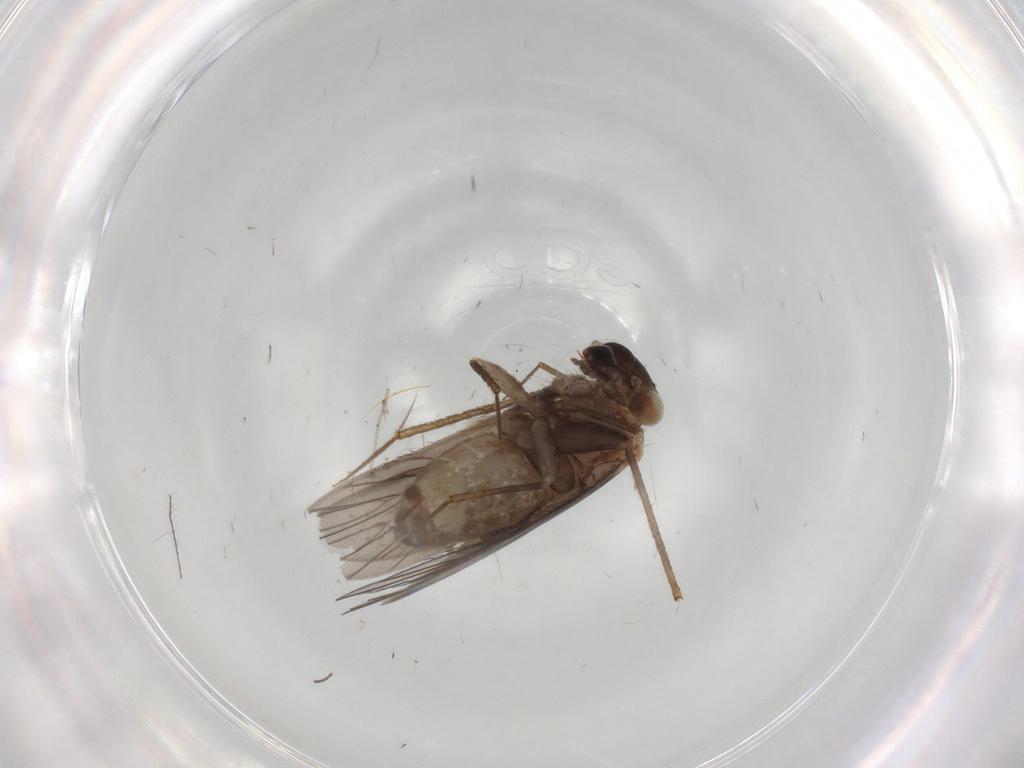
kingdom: Animalia
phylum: Arthropoda
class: Insecta
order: Psocodea
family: Lepidopsocidae
